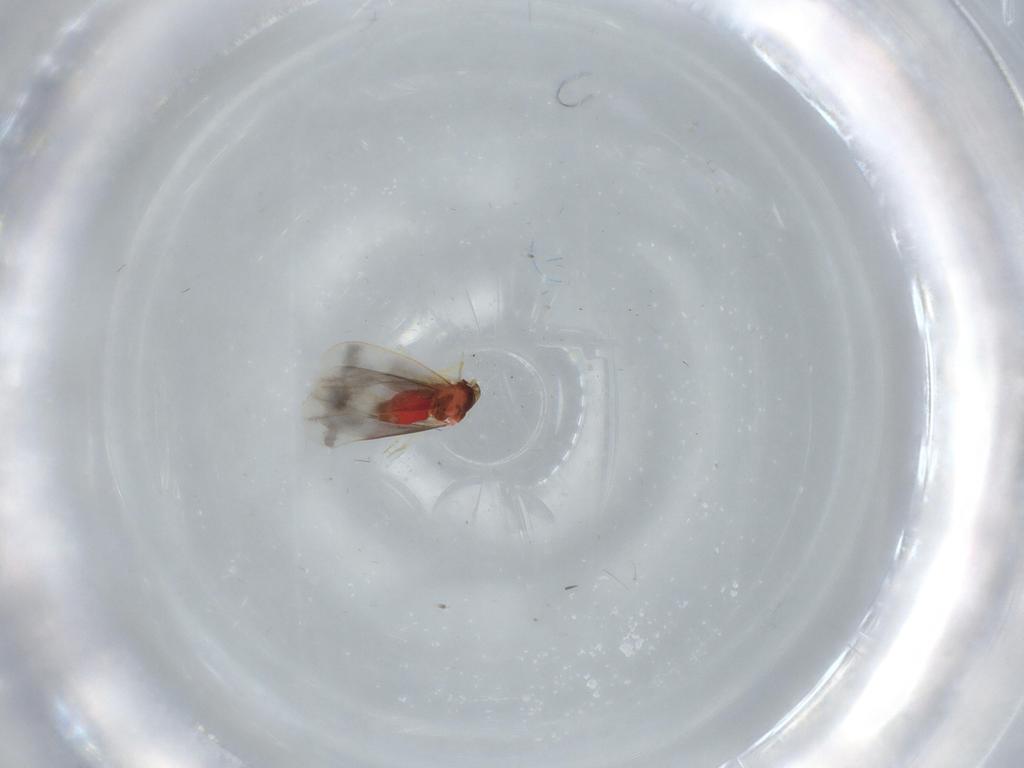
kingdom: Animalia
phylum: Arthropoda
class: Insecta
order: Hemiptera
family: Aleyrodidae
